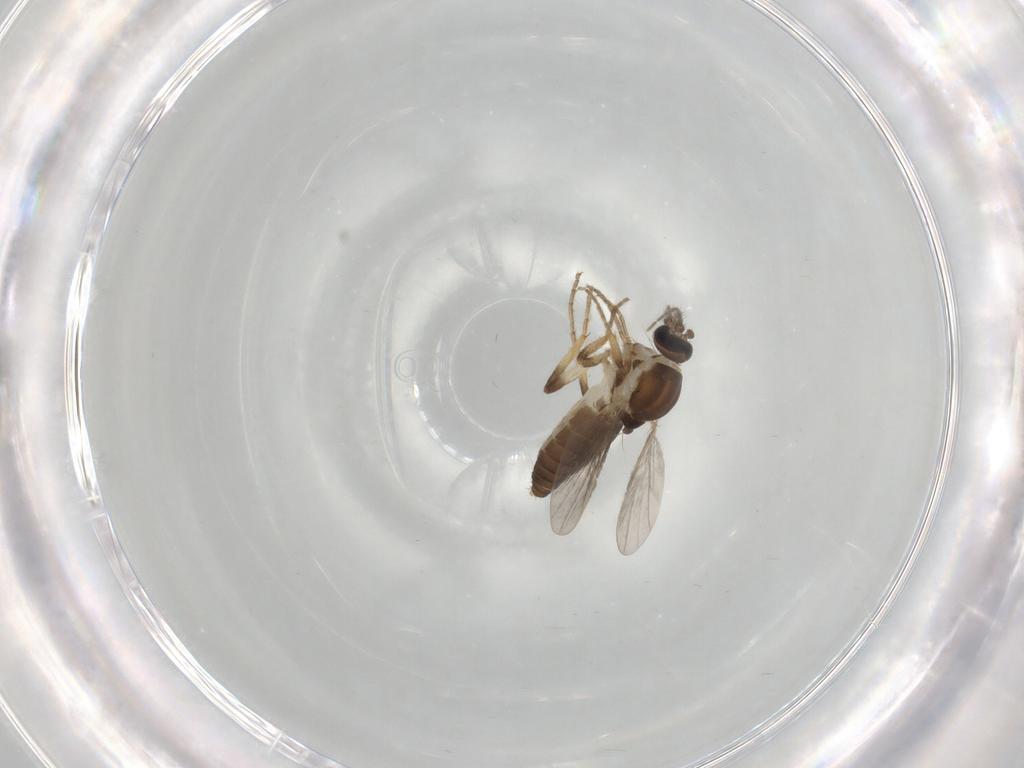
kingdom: Animalia
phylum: Arthropoda
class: Insecta
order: Diptera
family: Ceratopogonidae
